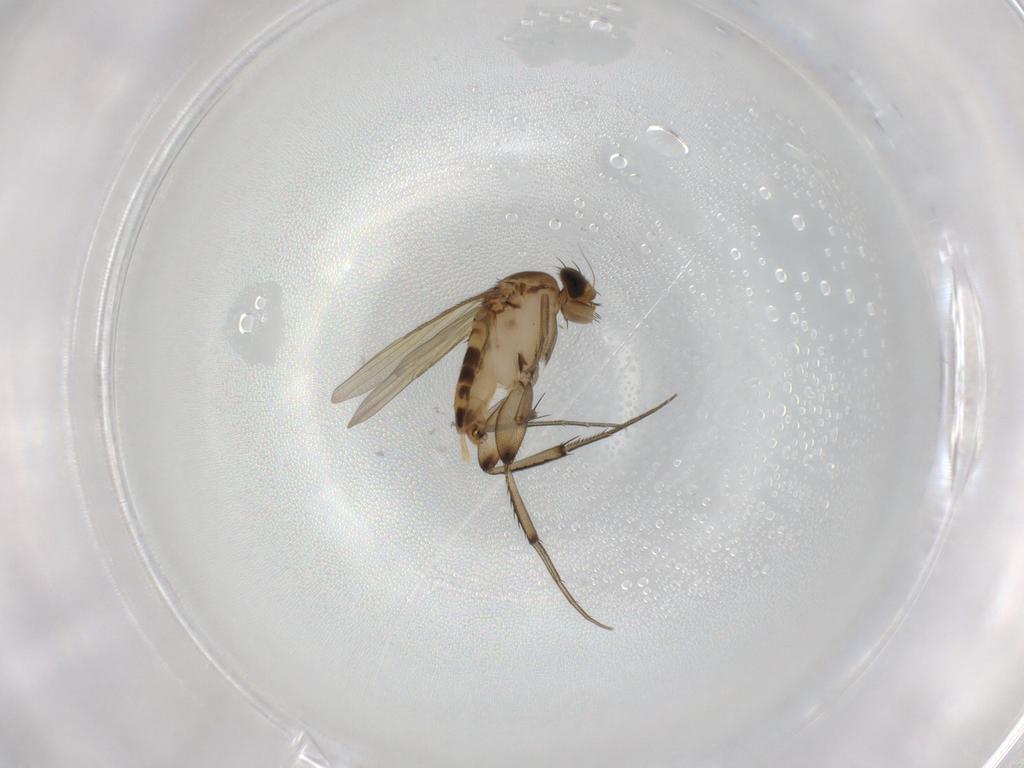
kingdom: Animalia
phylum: Arthropoda
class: Insecta
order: Diptera
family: Phoridae
